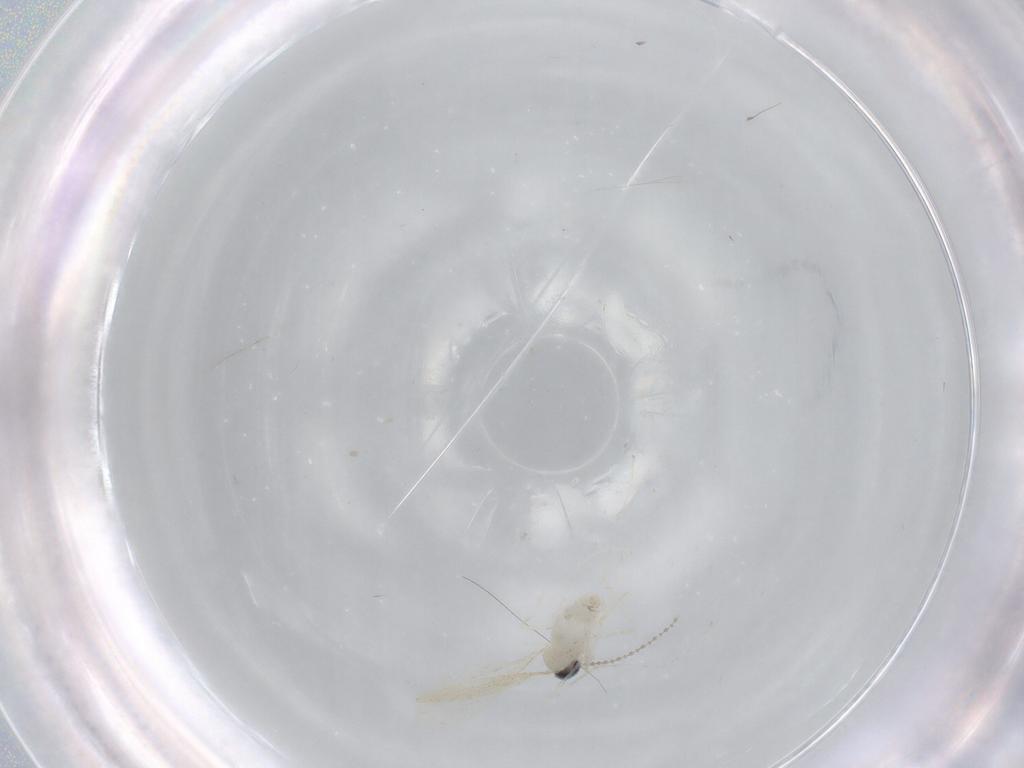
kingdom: Animalia
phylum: Arthropoda
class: Insecta
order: Diptera
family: Cecidomyiidae
